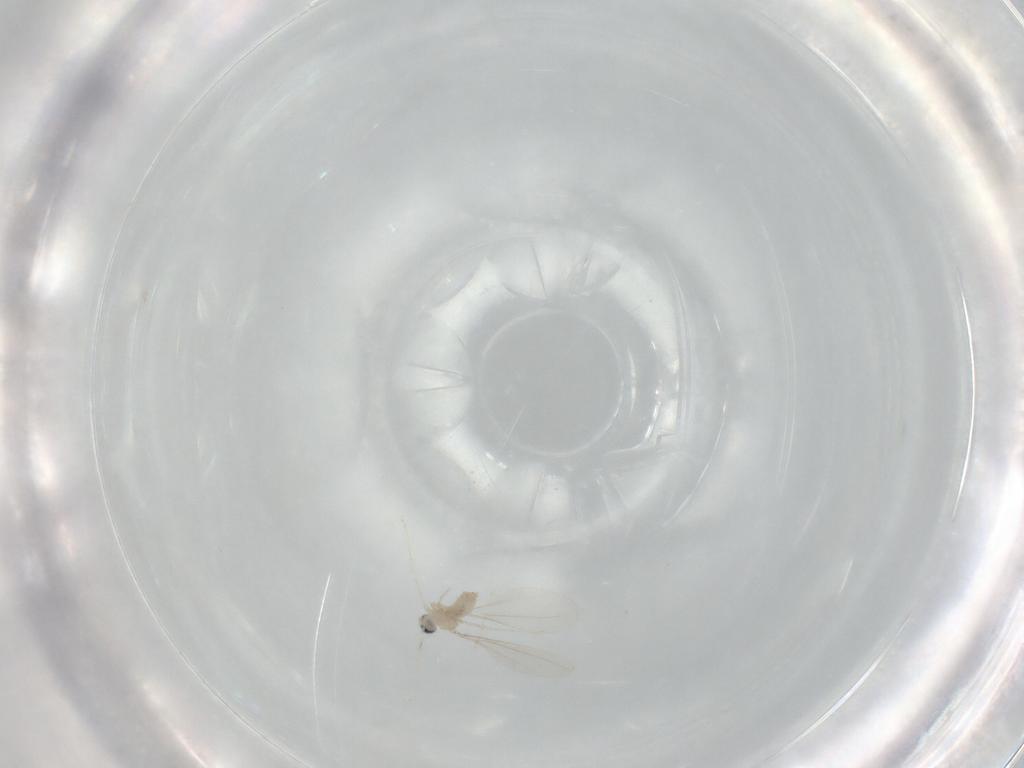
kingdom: Animalia
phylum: Arthropoda
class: Insecta
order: Diptera
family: Cecidomyiidae
